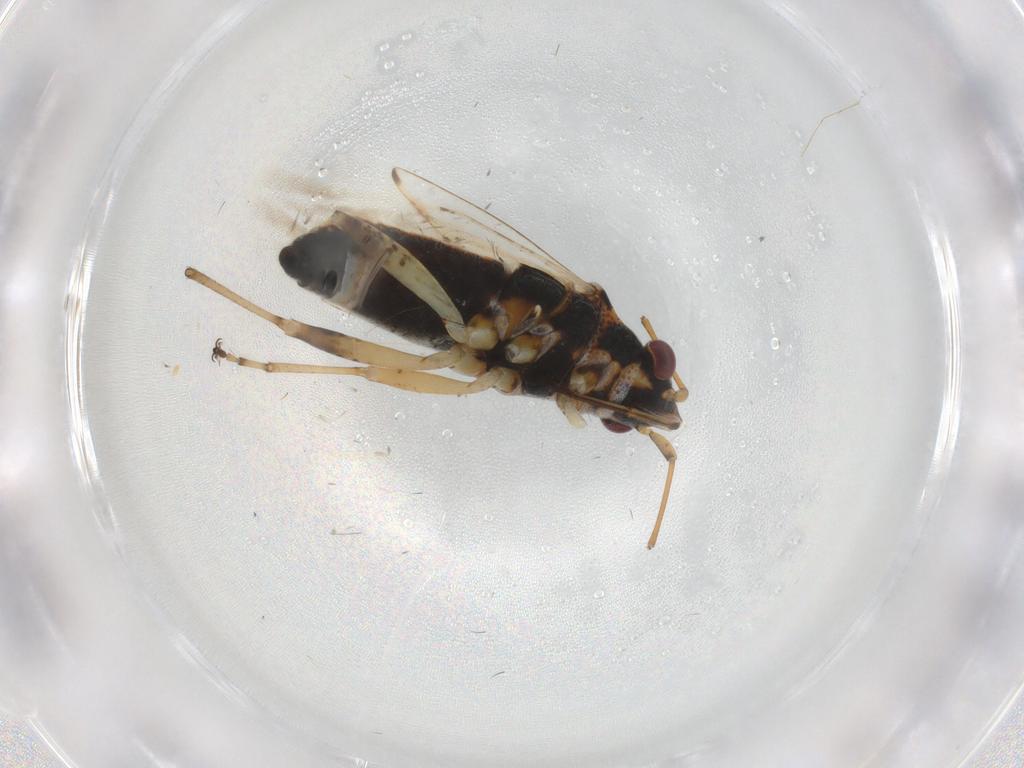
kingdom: Animalia
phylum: Arthropoda
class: Insecta
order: Hemiptera
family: Lygaeidae
